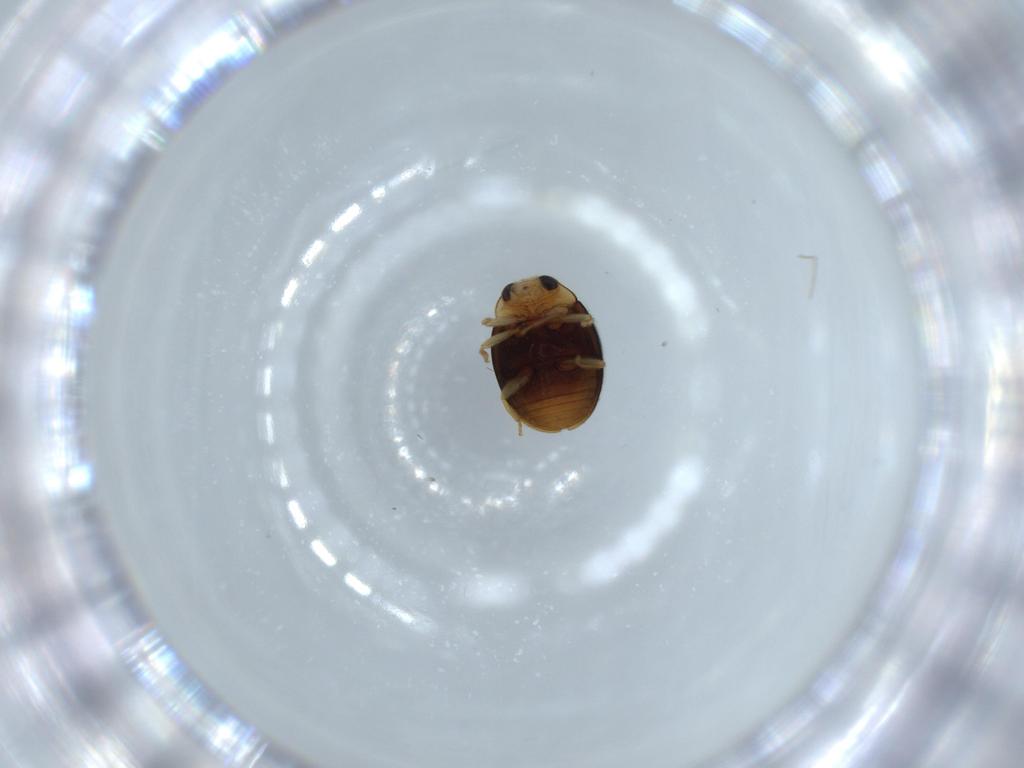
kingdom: Animalia
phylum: Arthropoda
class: Insecta
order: Coleoptera
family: Coccinellidae
